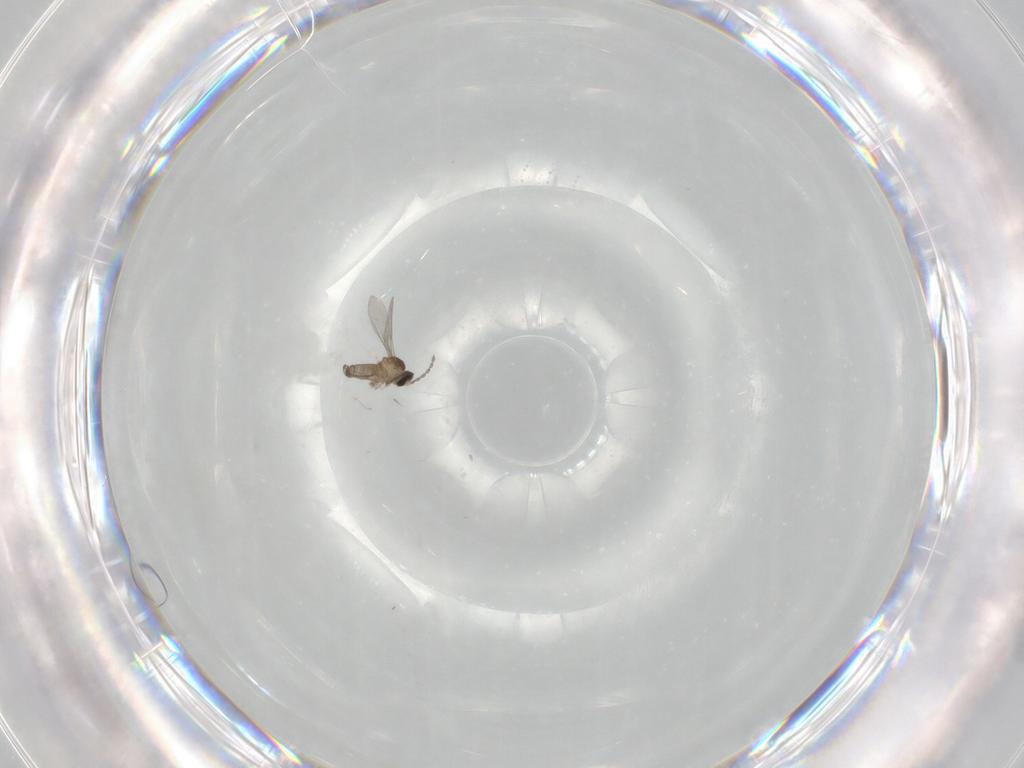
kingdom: Animalia
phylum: Arthropoda
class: Insecta
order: Diptera
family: Cecidomyiidae
